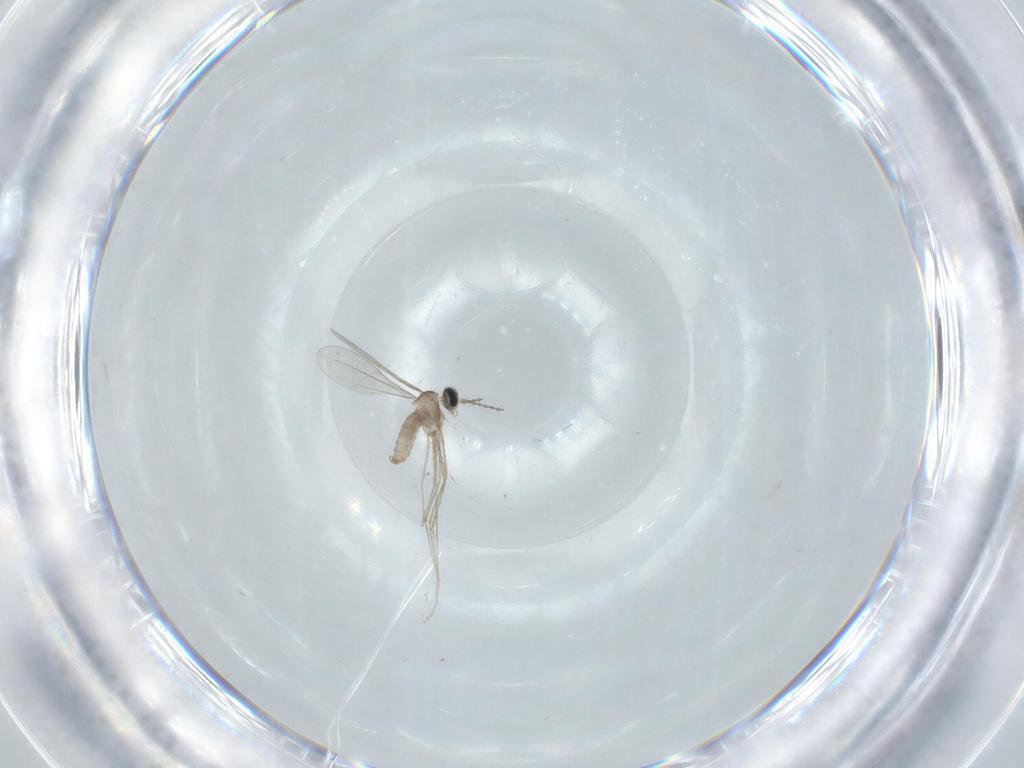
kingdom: Animalia
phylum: Arthropoda
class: Insecta
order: Diptera
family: Cecidomyiidae
